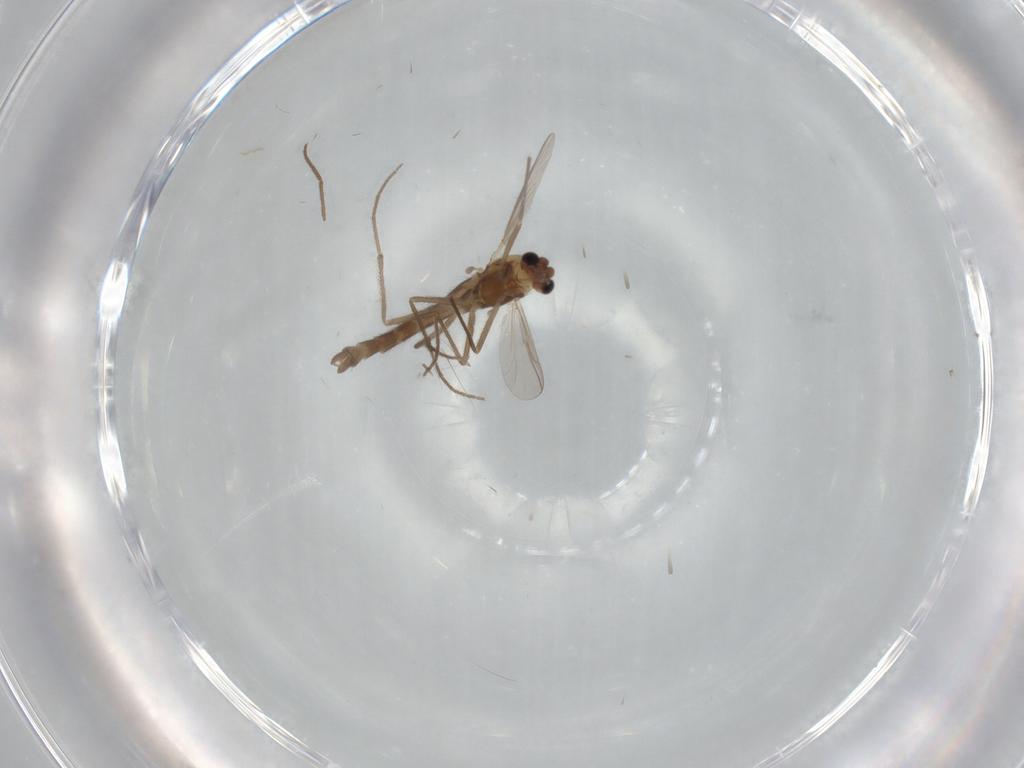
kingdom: Animalia
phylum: Arthropoda
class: Insecta
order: Diptera
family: Chironomidae
